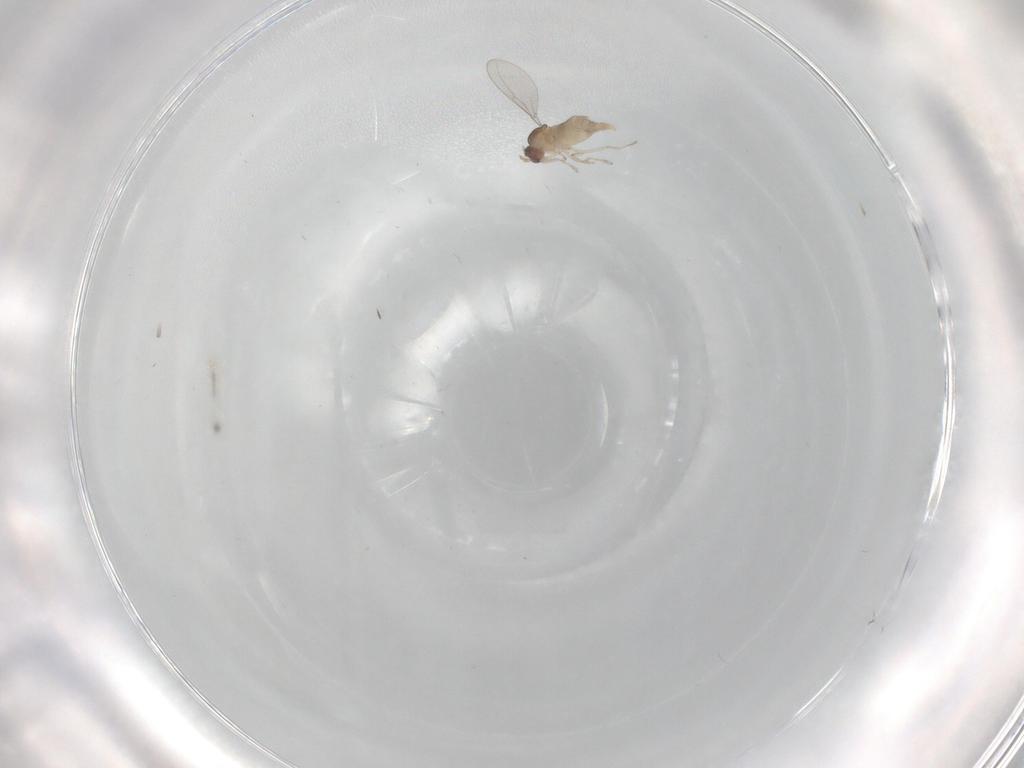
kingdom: Animalia
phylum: Arthropoda
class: Insecta
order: Diptera
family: Cecidomyiidae
